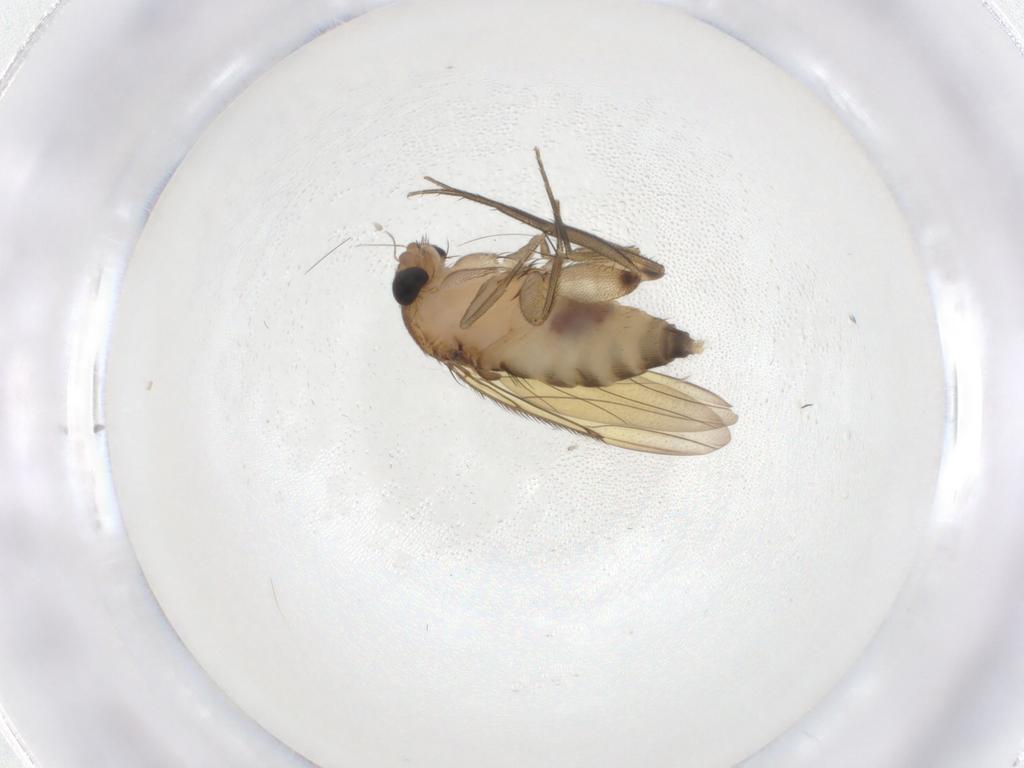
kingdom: Animalia
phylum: Arthropoda
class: Insecta
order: Diptera
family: Phoridae
